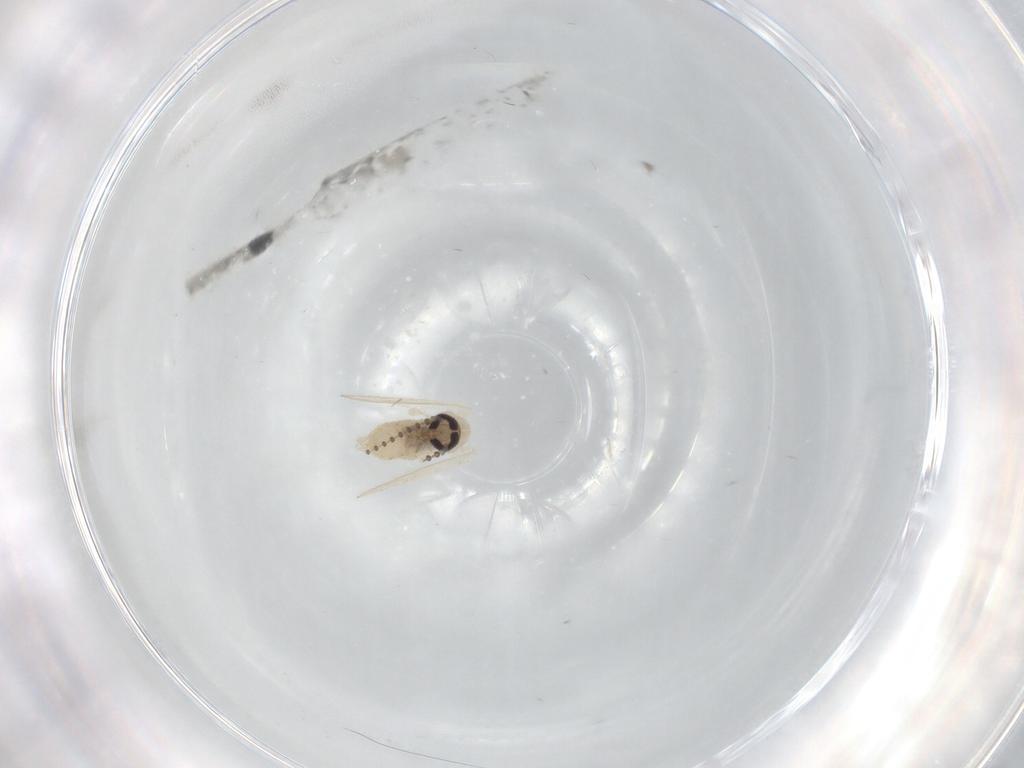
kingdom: Animalia
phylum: Arthropoda
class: Insecta
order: Diptera
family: Psychodidae
